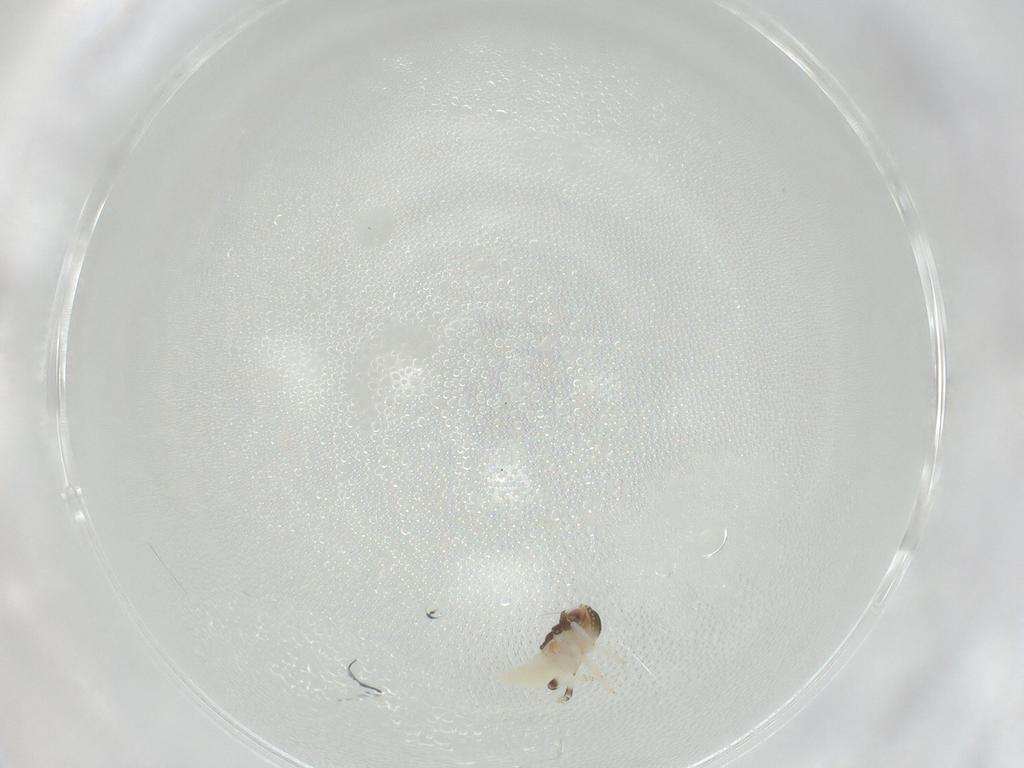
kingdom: Animalia
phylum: Arthropoda
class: Insecta
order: Hemiptera
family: Nogodinidae
